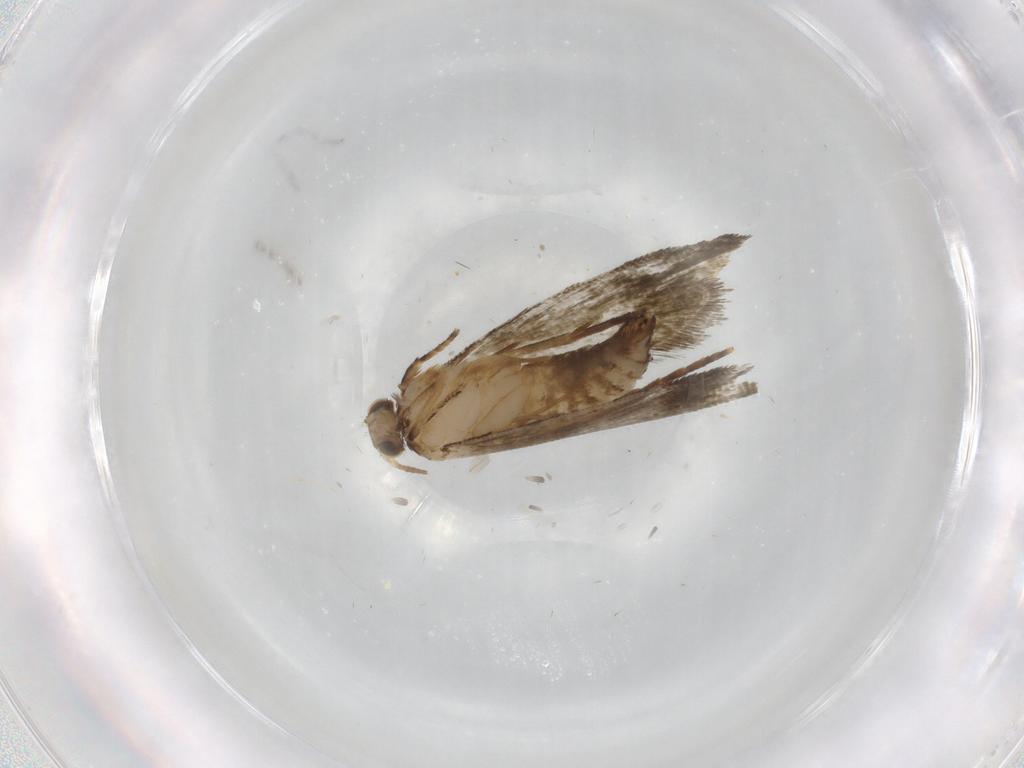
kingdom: Animalia
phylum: Arthropoda
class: Insecta
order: Lepidoptera
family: Crambidae
